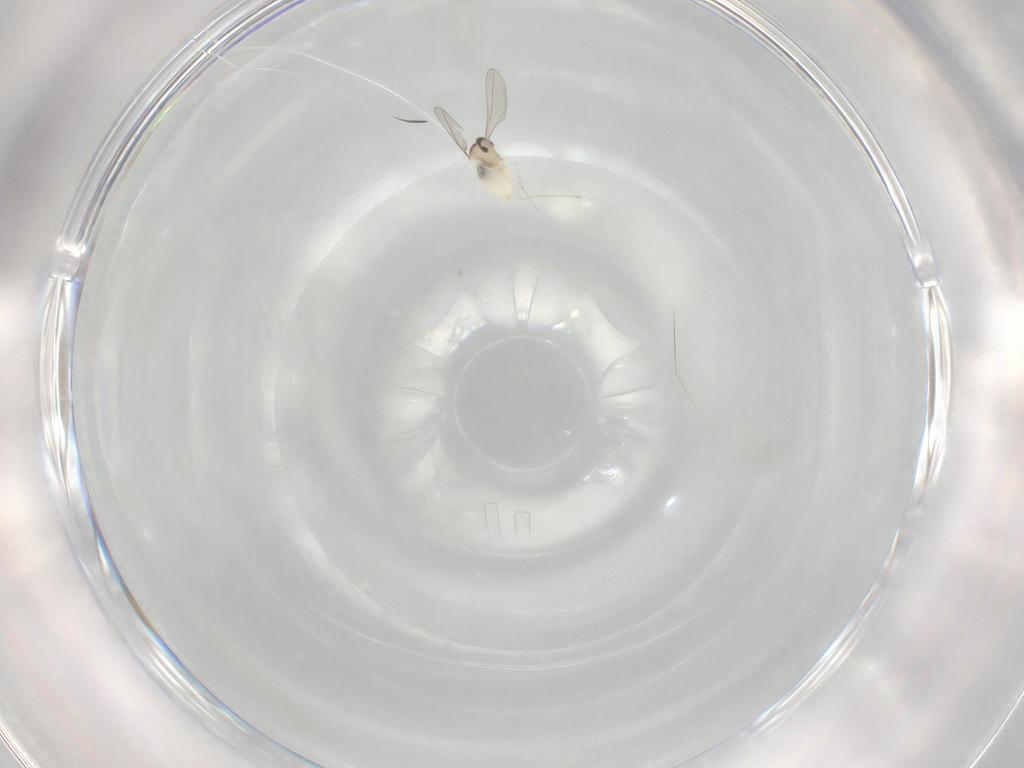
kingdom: Animalia
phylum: Arthropoda
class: Insecta
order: Diptera
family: Cecidomyiidae
